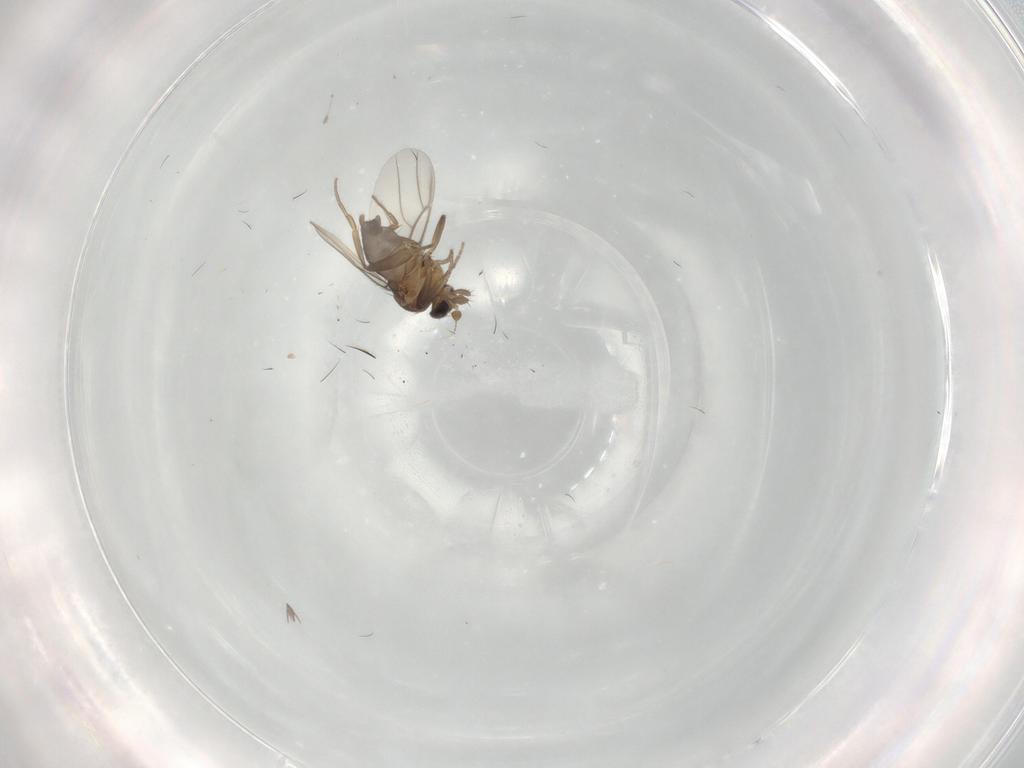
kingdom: Animalia
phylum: Arthropoda
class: Insecta
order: Diptera
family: Phoridae
